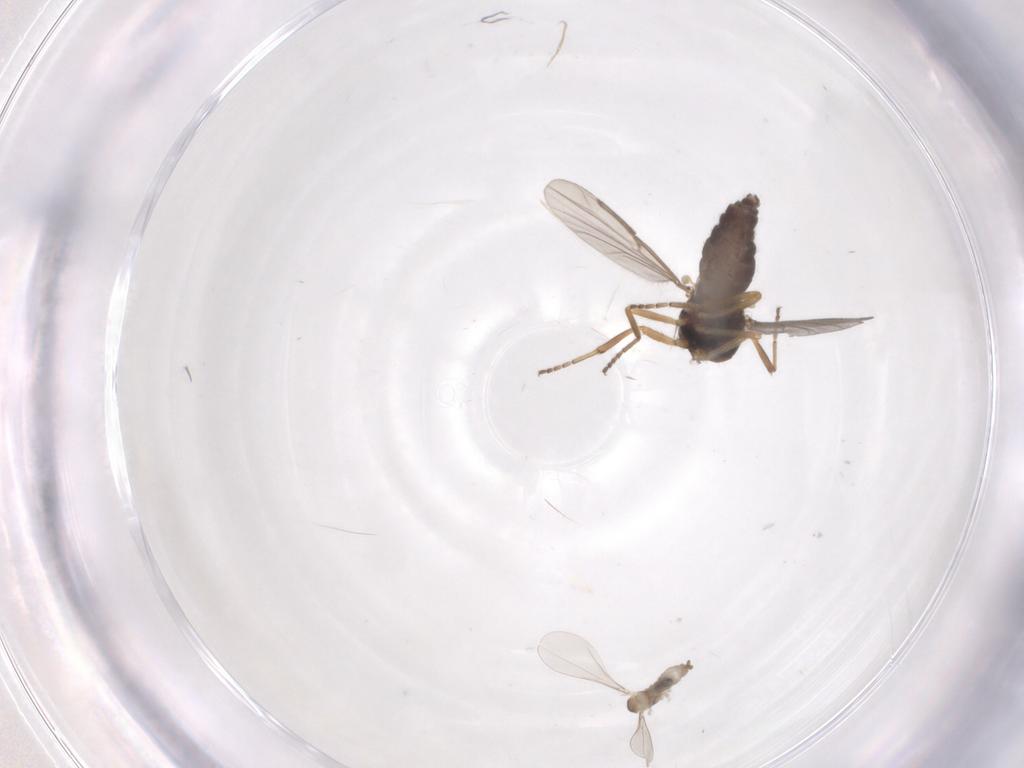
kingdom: Animalia
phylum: Arthropoda
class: Insecta
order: Diptera
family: Ceratopogonidae
